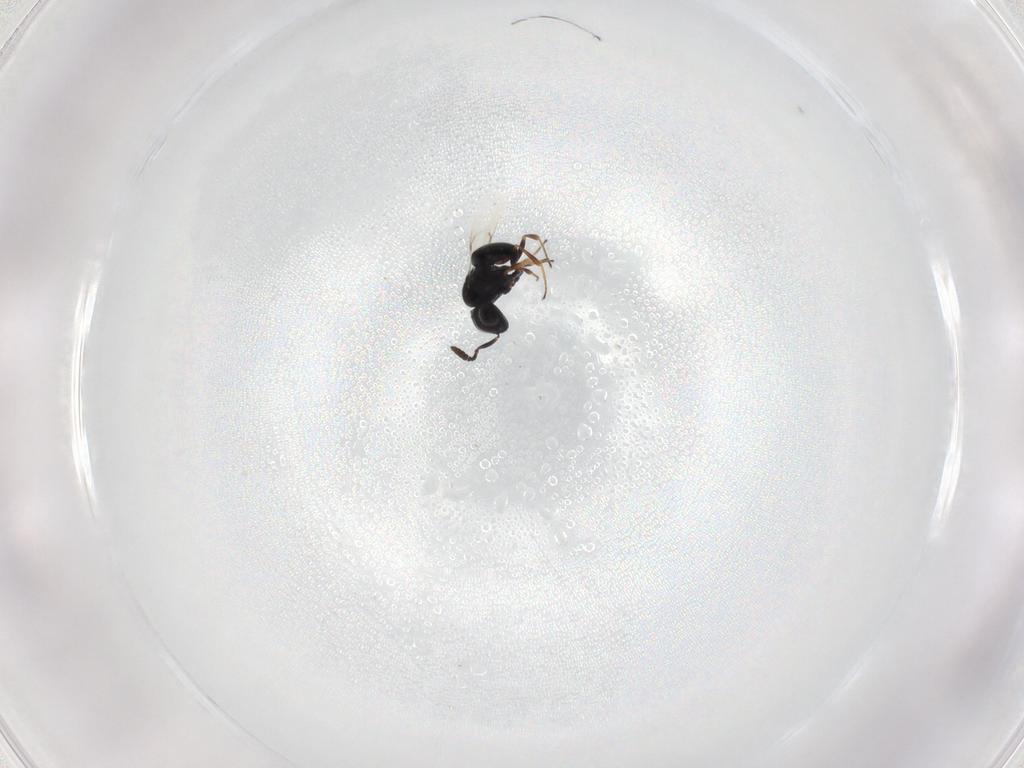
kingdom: Animalia
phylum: Arthropoda
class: Insecta
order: Hymenoptera
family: Scelionidae
